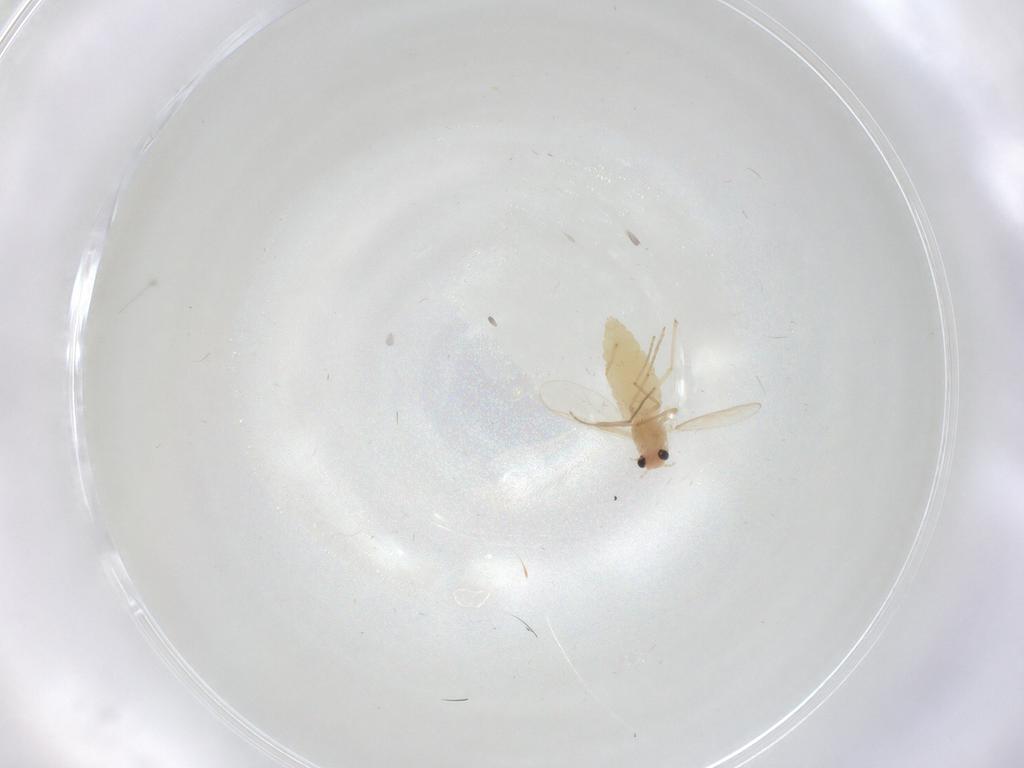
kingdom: Animalia
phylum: Arthropoda
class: Insecta
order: Diptera
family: Chironomidae
